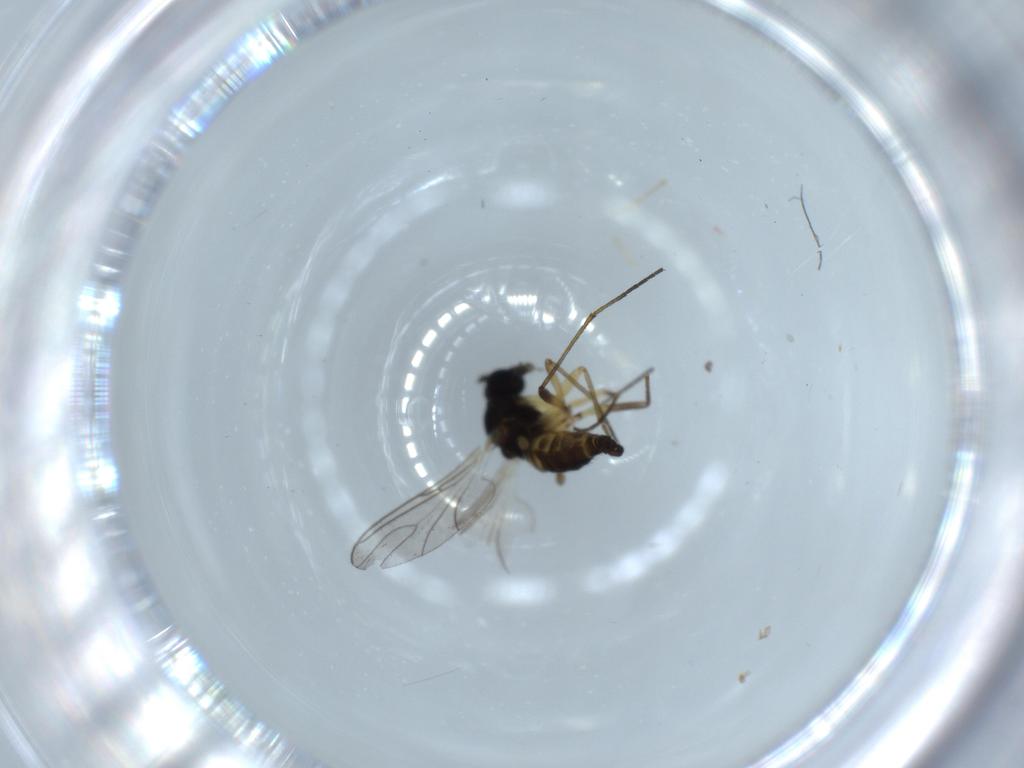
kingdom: Animalia
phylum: Arthropoda
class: Insecta
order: Diptera
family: Sciaridae
